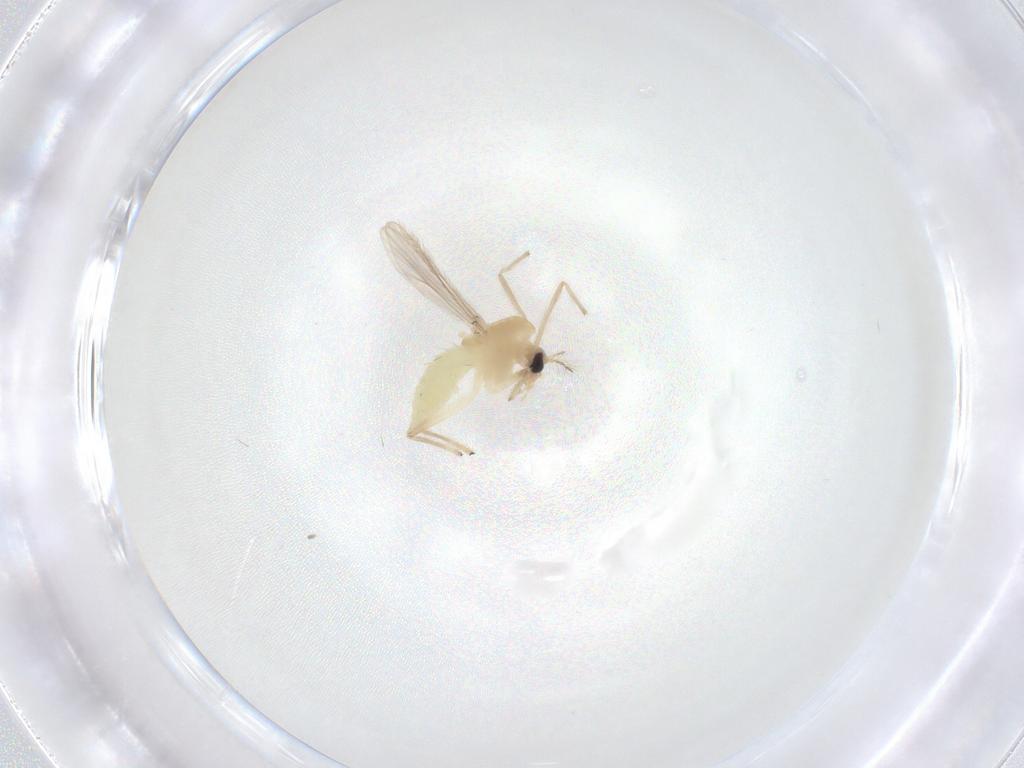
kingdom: Animalia
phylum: Arthropoda
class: Insecta
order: Diptera
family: Chironomidae
